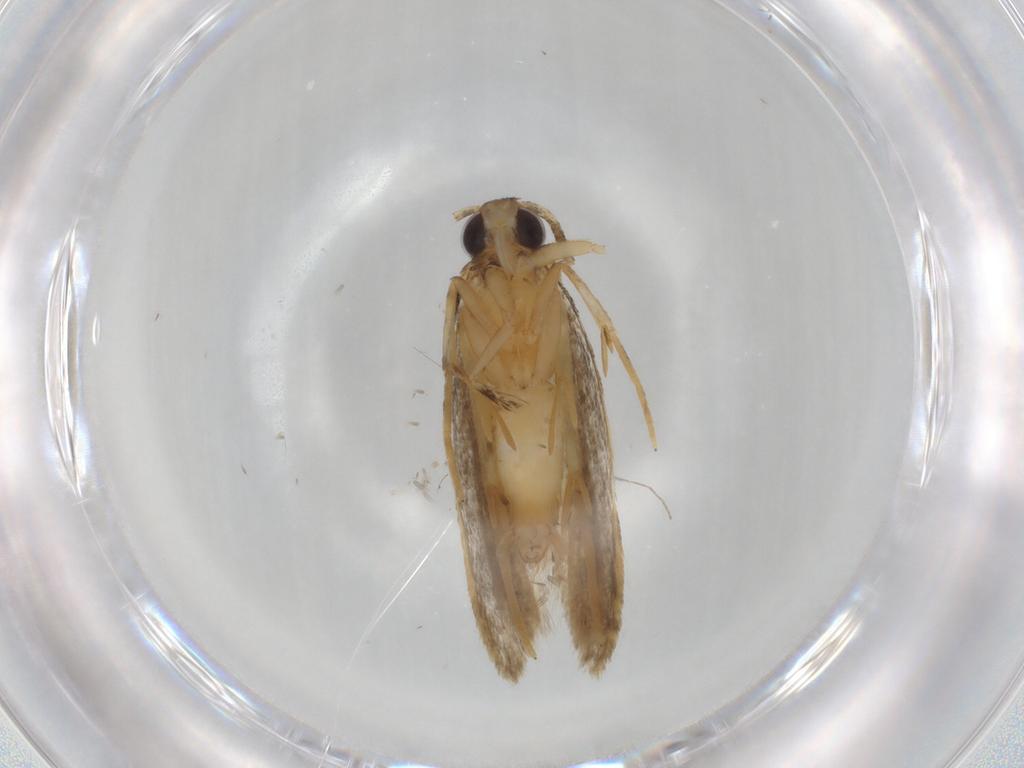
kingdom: Animalia
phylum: Arthropoda
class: Insecta
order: Lepidoptera
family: Autostichidae
